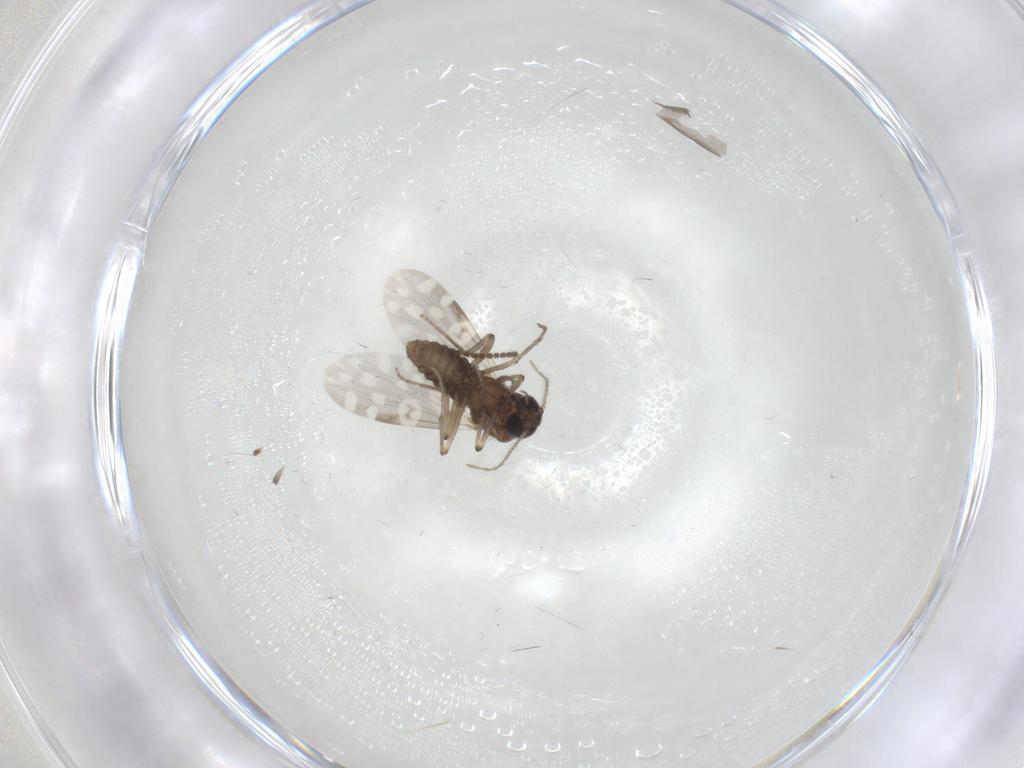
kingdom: Animalia
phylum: Arthropoda
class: Insecta
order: Diptera
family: Sciaridae
